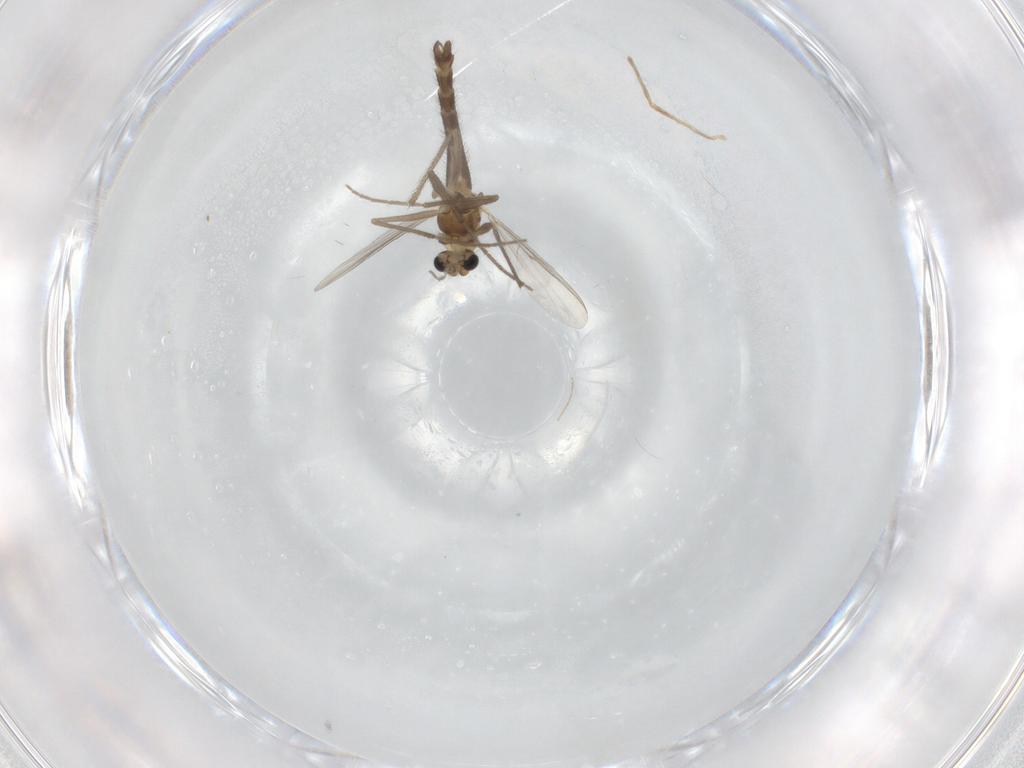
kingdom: Animalia
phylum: Arthropoda
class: Insecta
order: Diptera
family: Chironomidae
